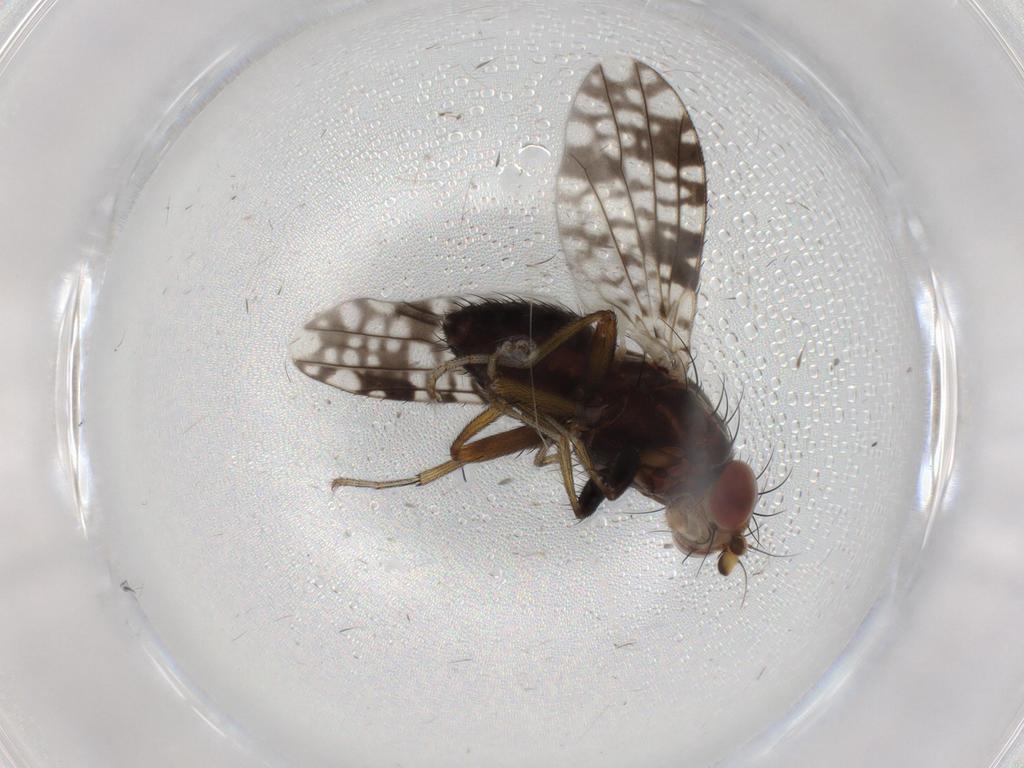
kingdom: Animalia
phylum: Arthropoda
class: Insecta
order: Diptera
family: Tephritidae
